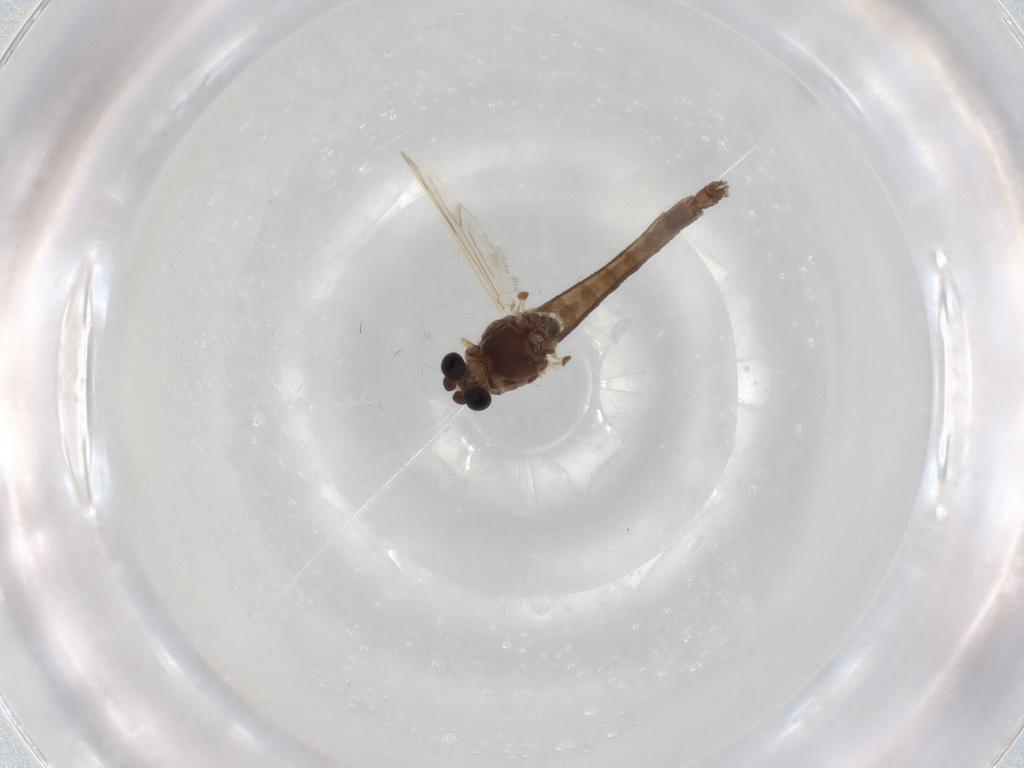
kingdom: Animalia
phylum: Arthropoda
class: Insecta
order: Diptera
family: Chironomidae
